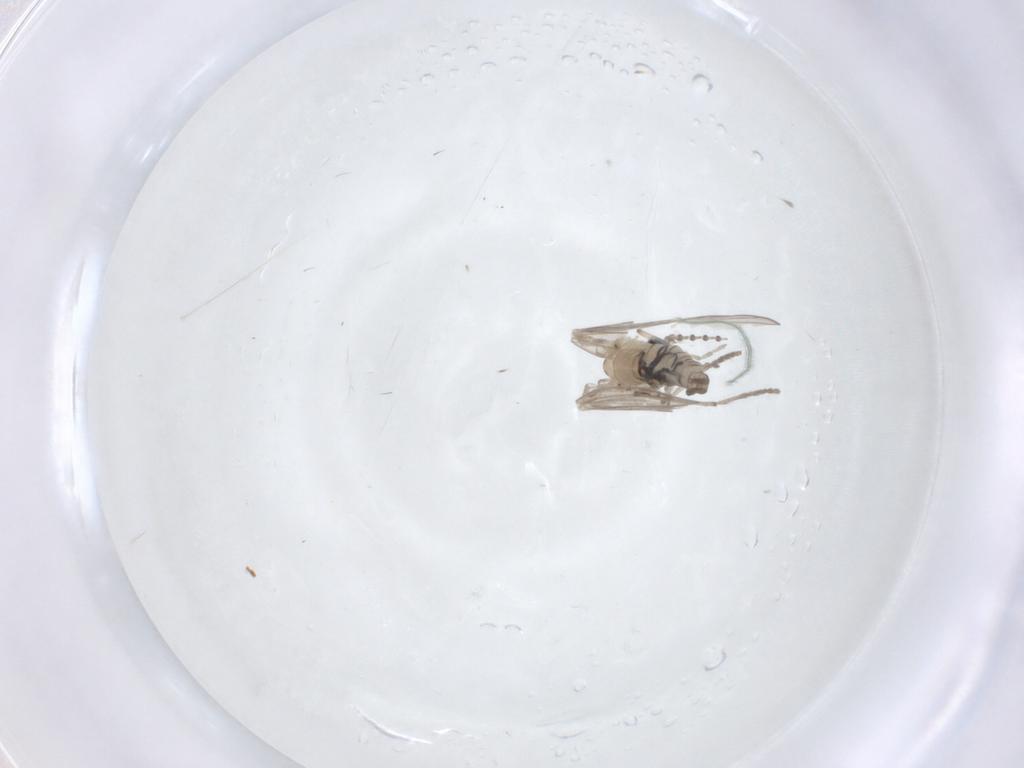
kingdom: Animalia
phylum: Arthropoda
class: Insecta
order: Diptera
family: Psychodidae
